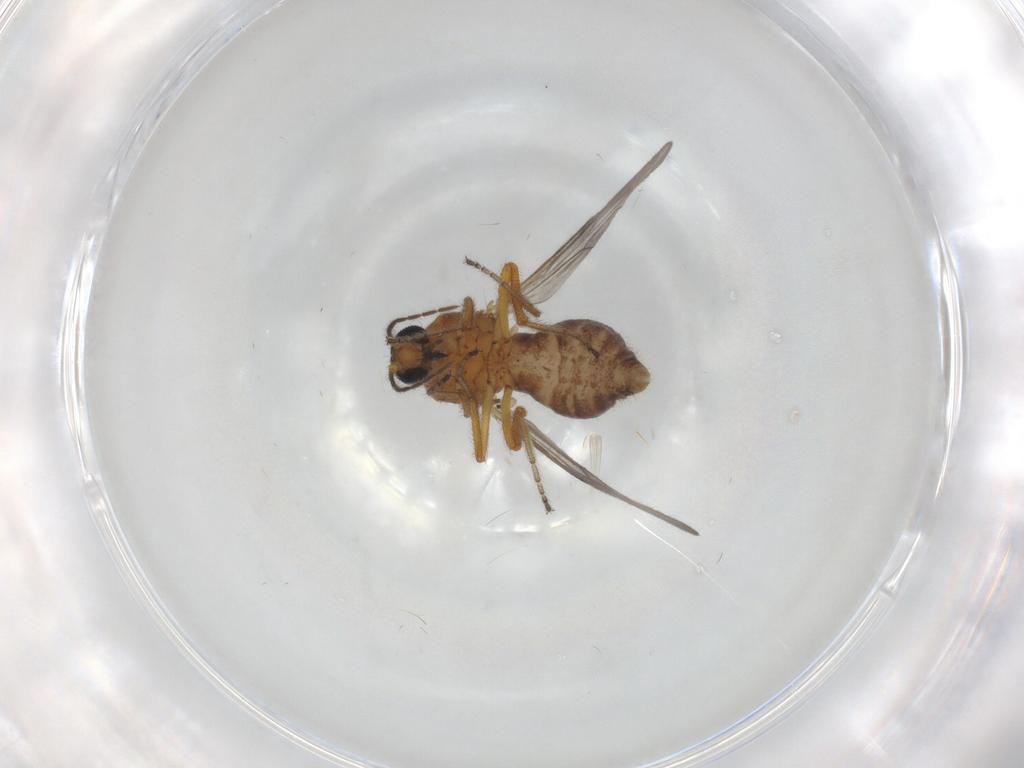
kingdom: Animalia
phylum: Arthropoda
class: Insecta
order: Diptera
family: Ceratopogonidae
